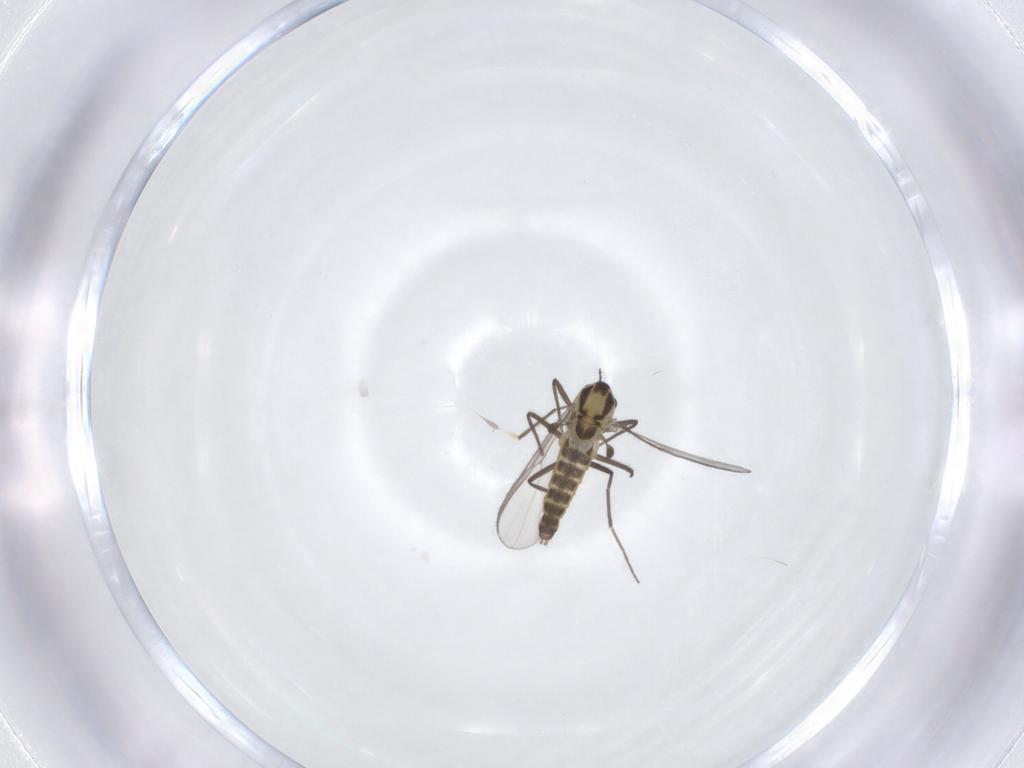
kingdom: Animalia
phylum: Arthropoda
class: Insecta
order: Diptera
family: Chironomidae
